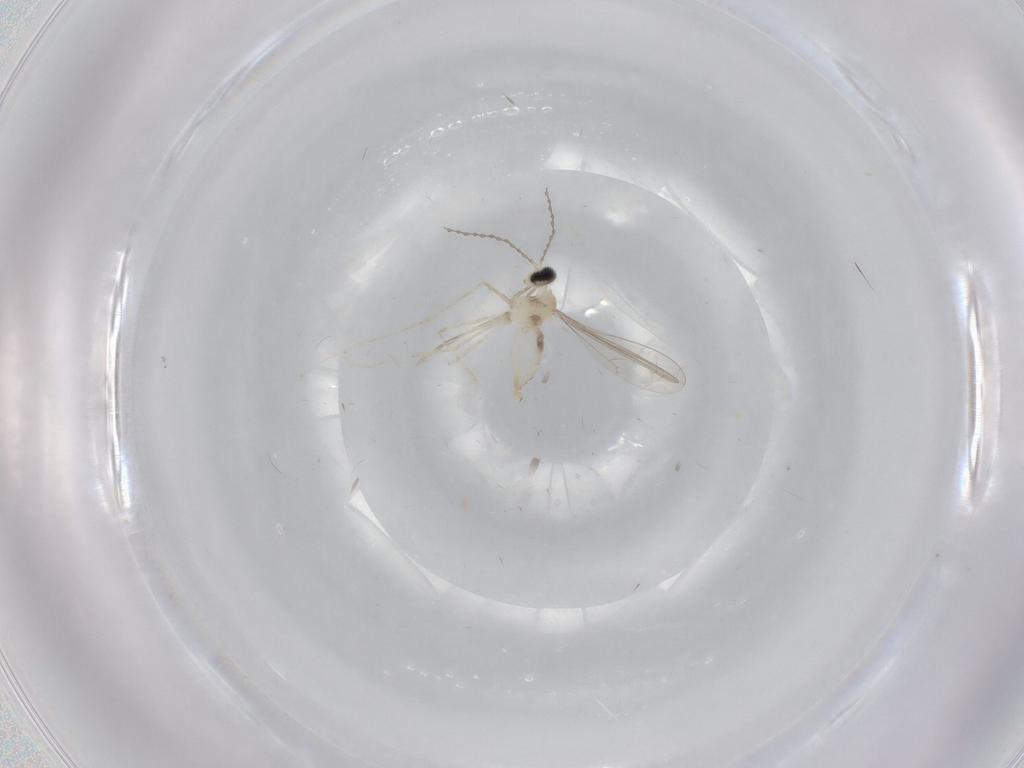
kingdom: Animalia
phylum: Arthropoda
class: Insecta
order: Diptera
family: Cecidomyiidae
